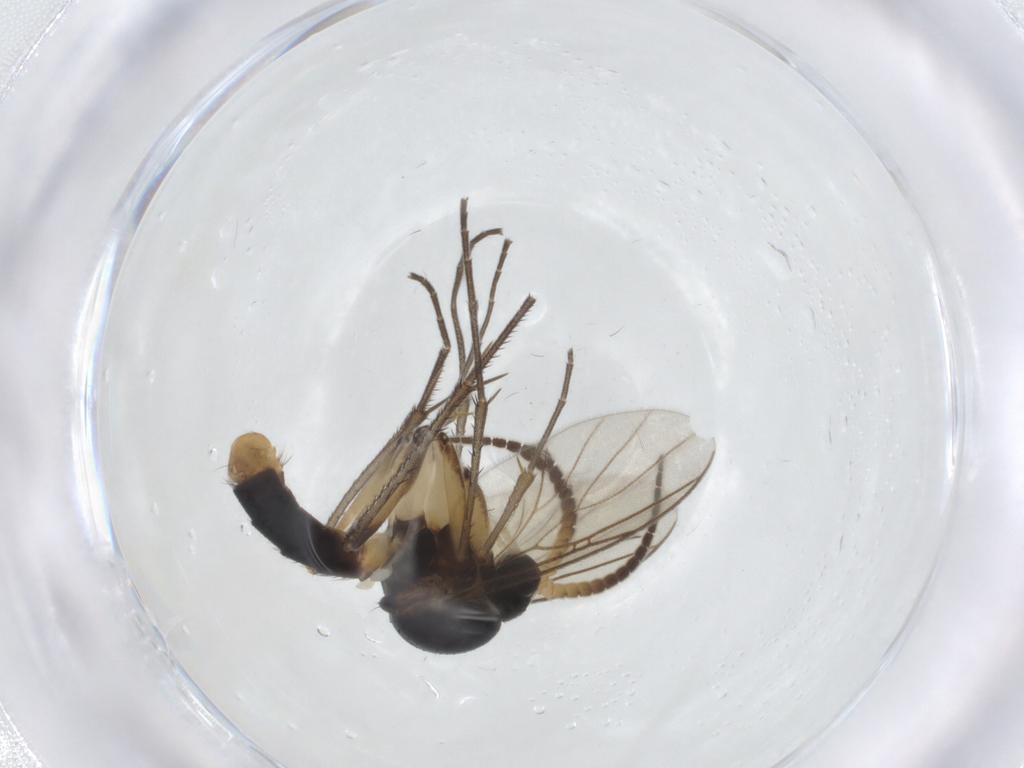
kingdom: Animalia
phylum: Arthropoda
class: Insecta
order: Diptera
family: Mycetophilidae
